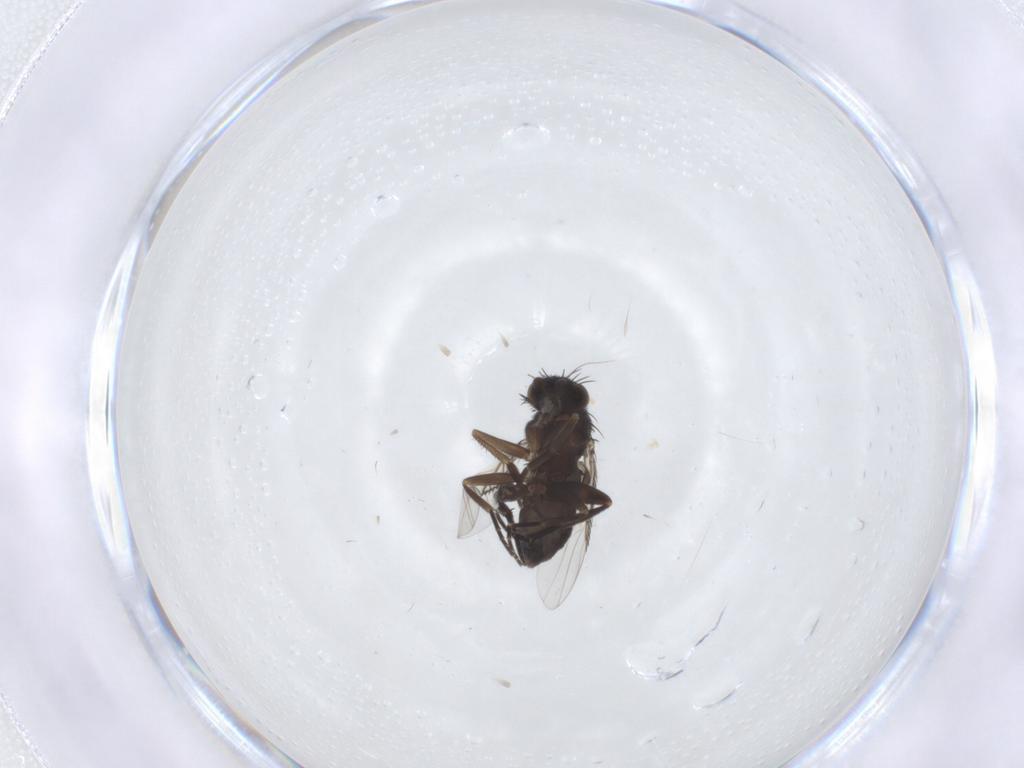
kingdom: Animalia
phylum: Arthropoda
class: Insecta
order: Diptera
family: Phoridae
